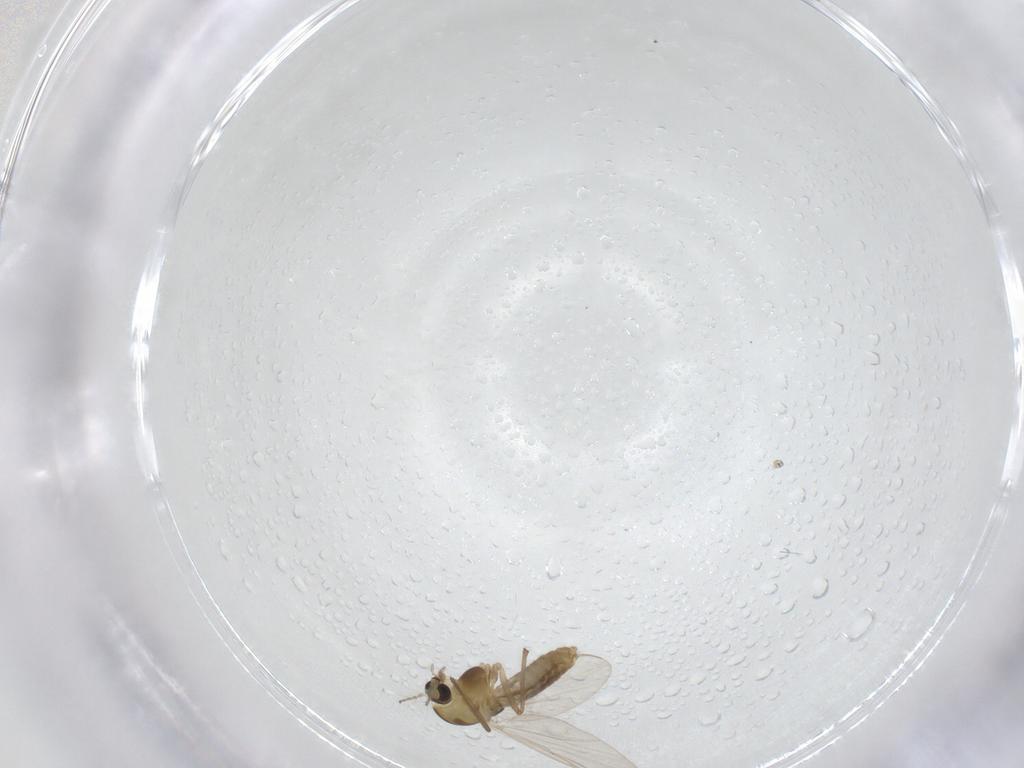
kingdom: Animalia
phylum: Arthropoda
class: Insecta
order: Diptera
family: Chironomidae
